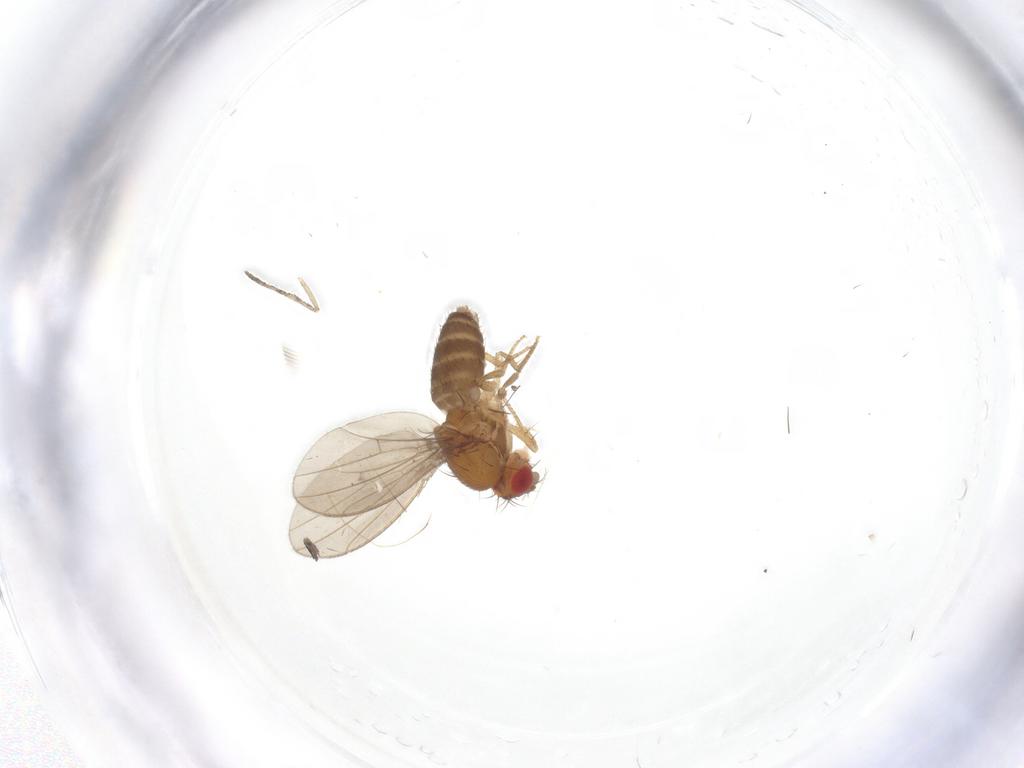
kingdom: Animalia
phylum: Arthropoda
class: Insecta
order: Diptera
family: Drosophilidae
